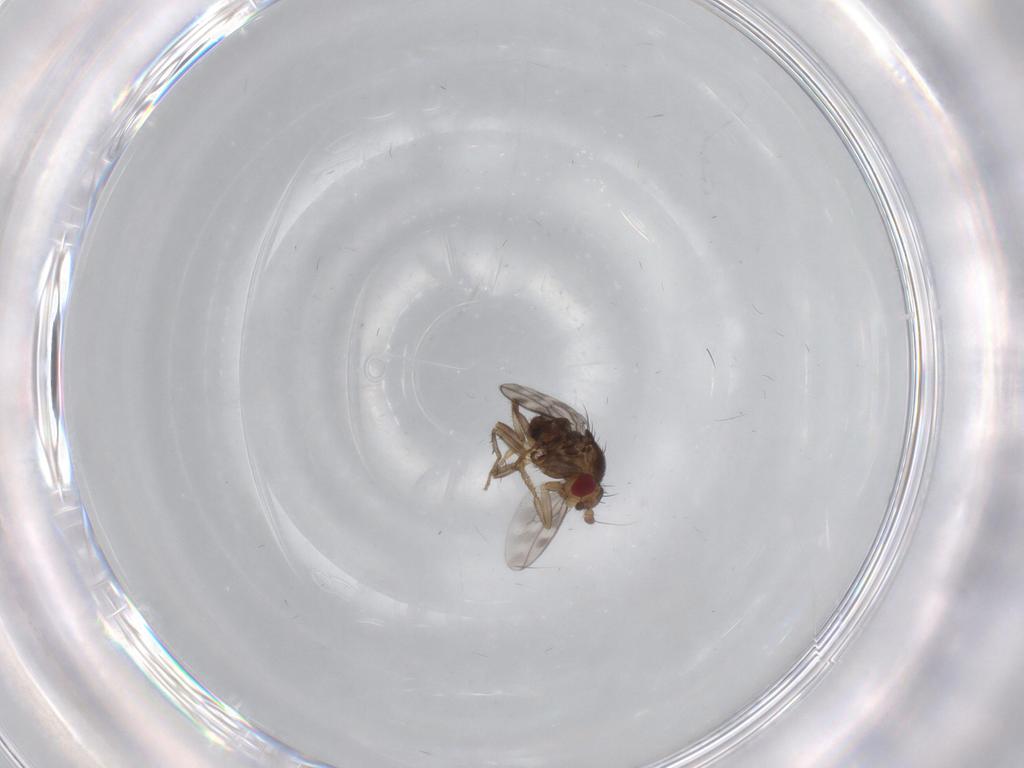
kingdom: Animalia
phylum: Arthropoda
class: Insecta
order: Diptera
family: Sphaeroceridae
